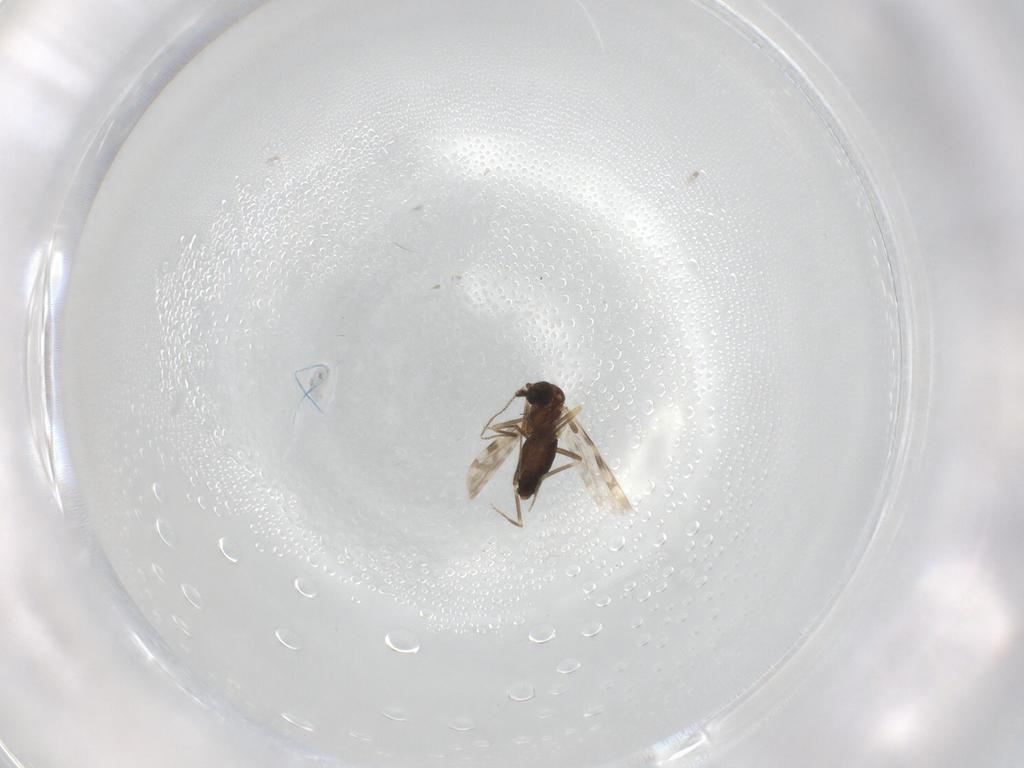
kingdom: Animalia
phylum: Arthropoda
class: Insecta
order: Diptera
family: Ceratopogonidae
